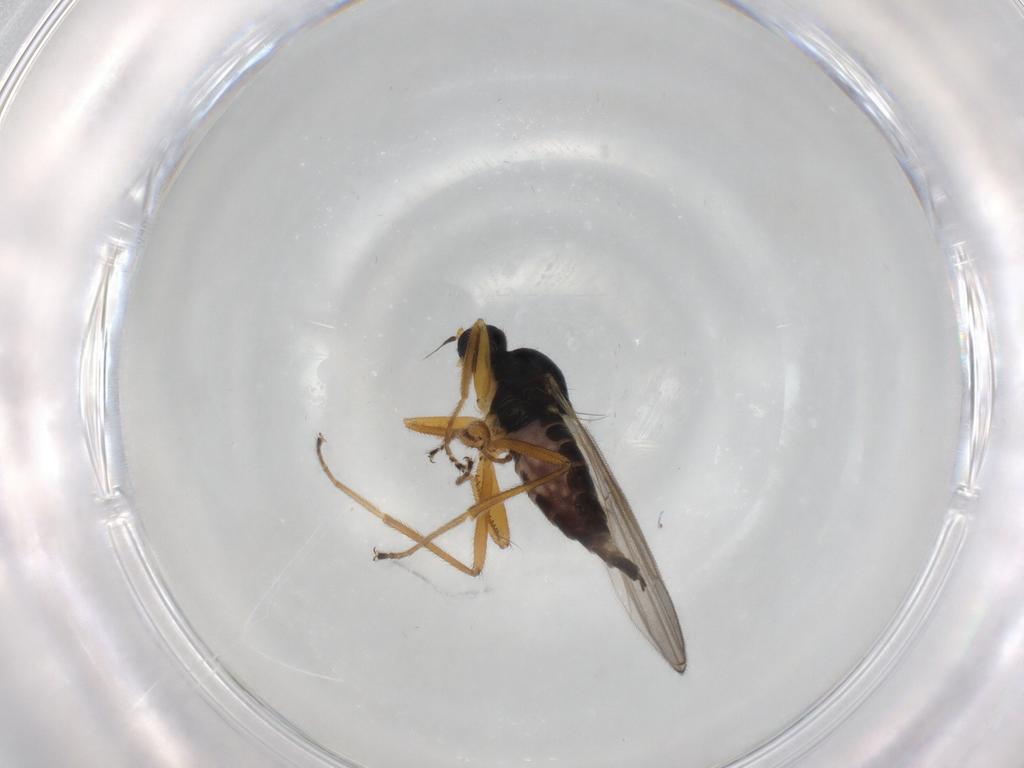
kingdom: Animalia
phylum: Arthropoda
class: Insecta
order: Diptera
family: Hybotidae
